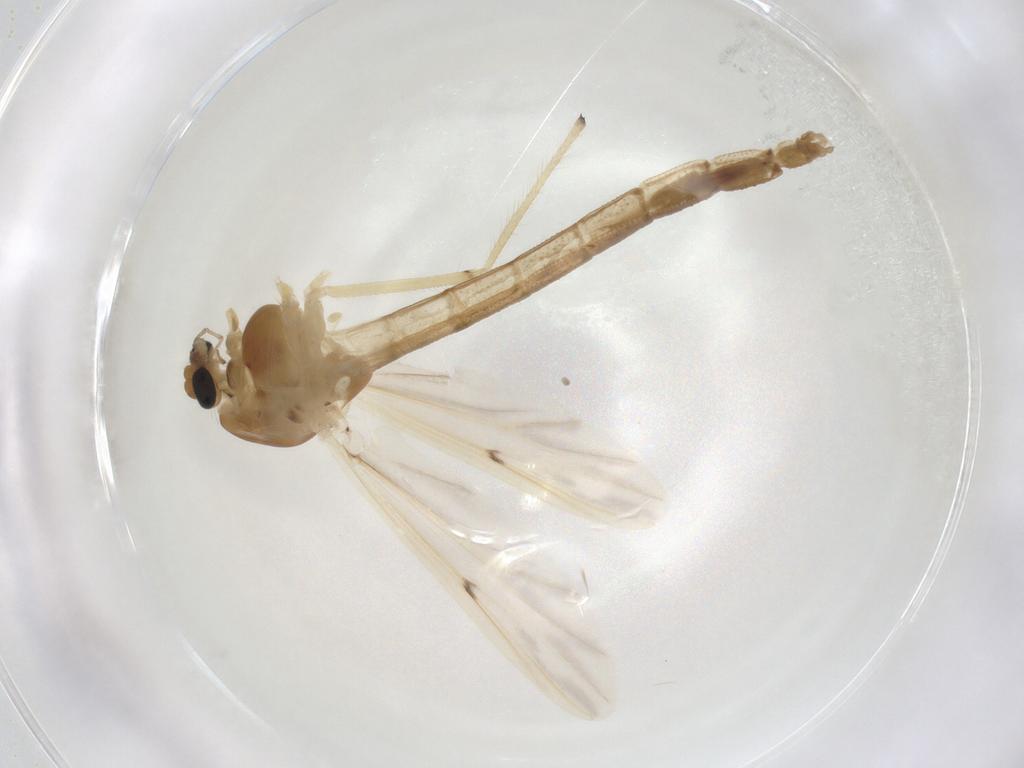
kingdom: Animalia
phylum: Arthropoda
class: Insecta
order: Diptera
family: Chironomidae
